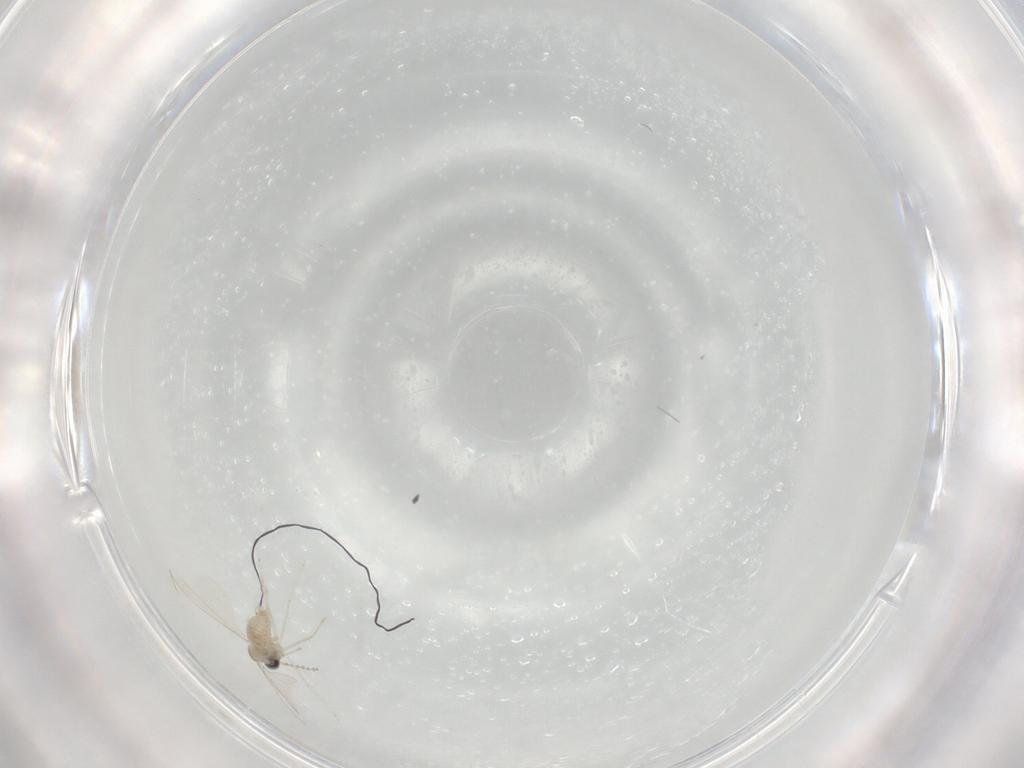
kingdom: Animalia
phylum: Arthropoda
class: Insecta
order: Diptera
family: Cecidomyiidae
